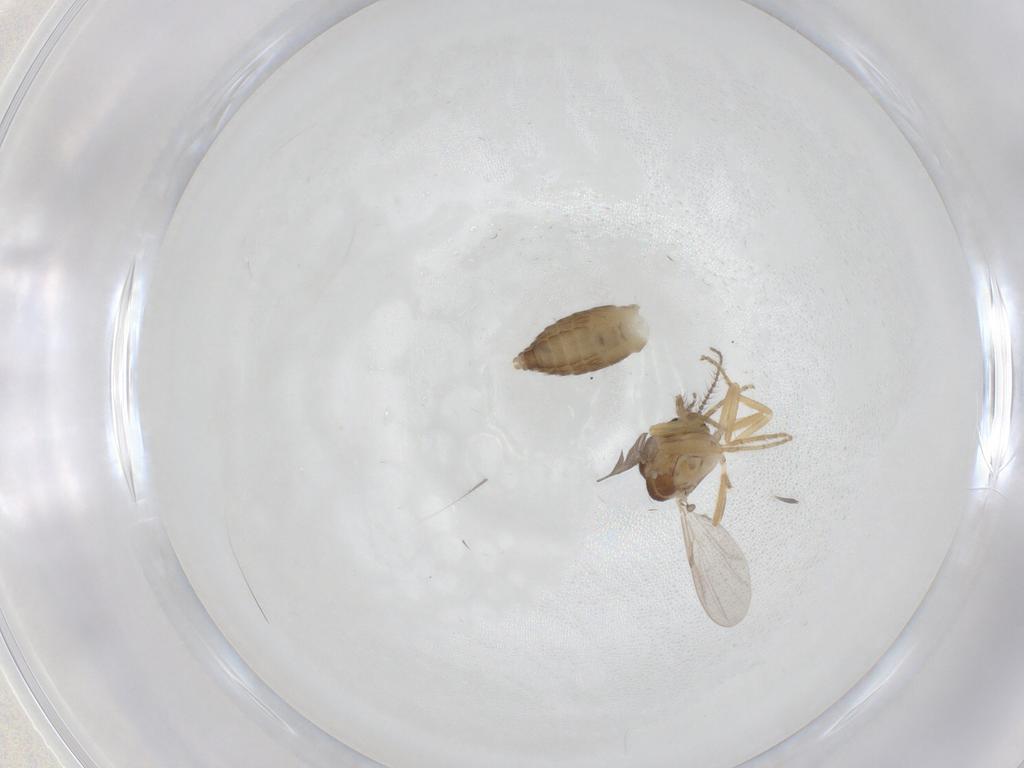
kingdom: Animalia
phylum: Arthropoda
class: Insecta
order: Diptera
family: Ceratopogonidae
